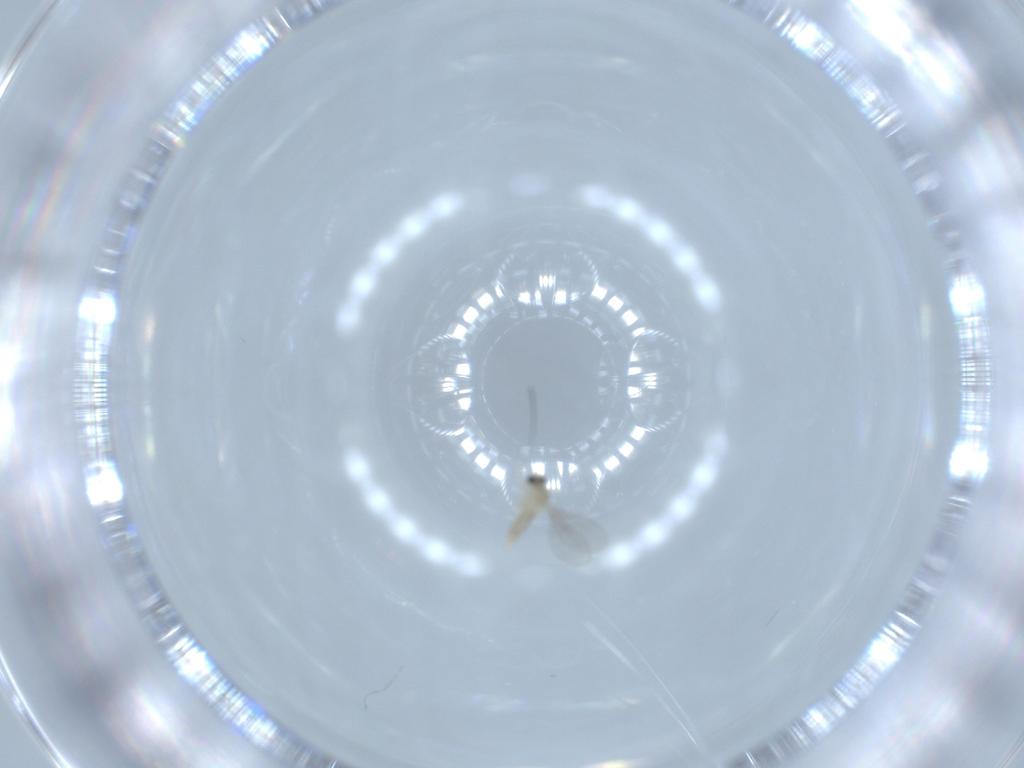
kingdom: Animalia
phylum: Arthropoda
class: Insecta
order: Diptera
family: Cecidomyiidae
